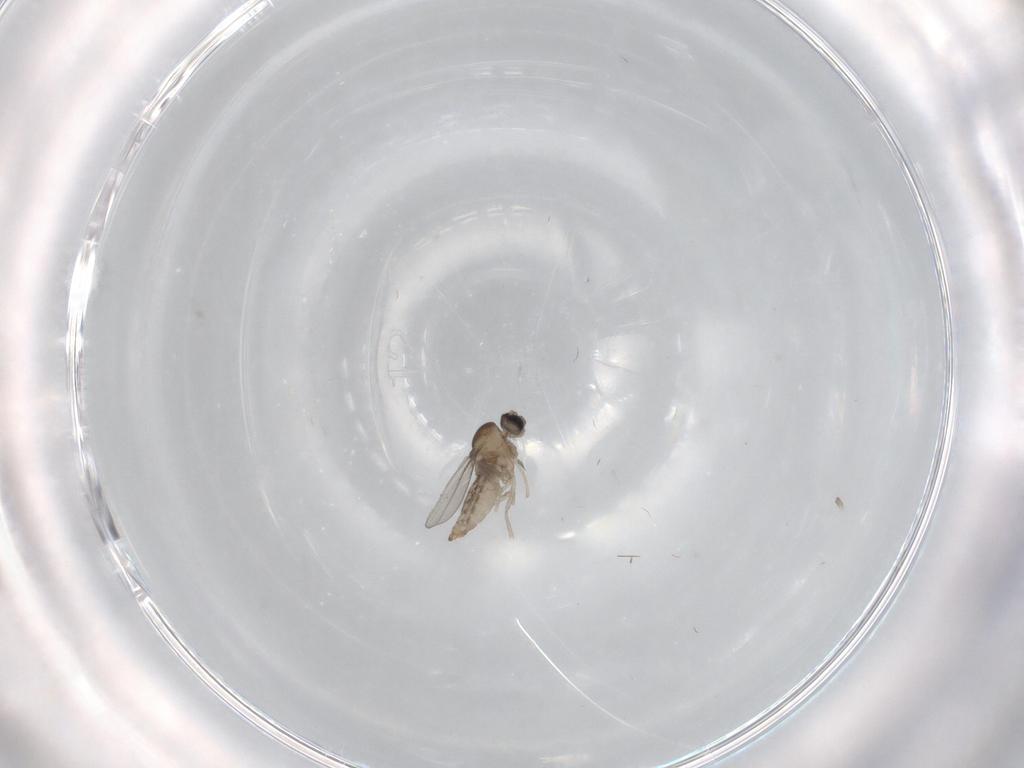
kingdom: Animalia
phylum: Arthropoda
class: Insecta
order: Diptera
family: Cecidomyiidae
